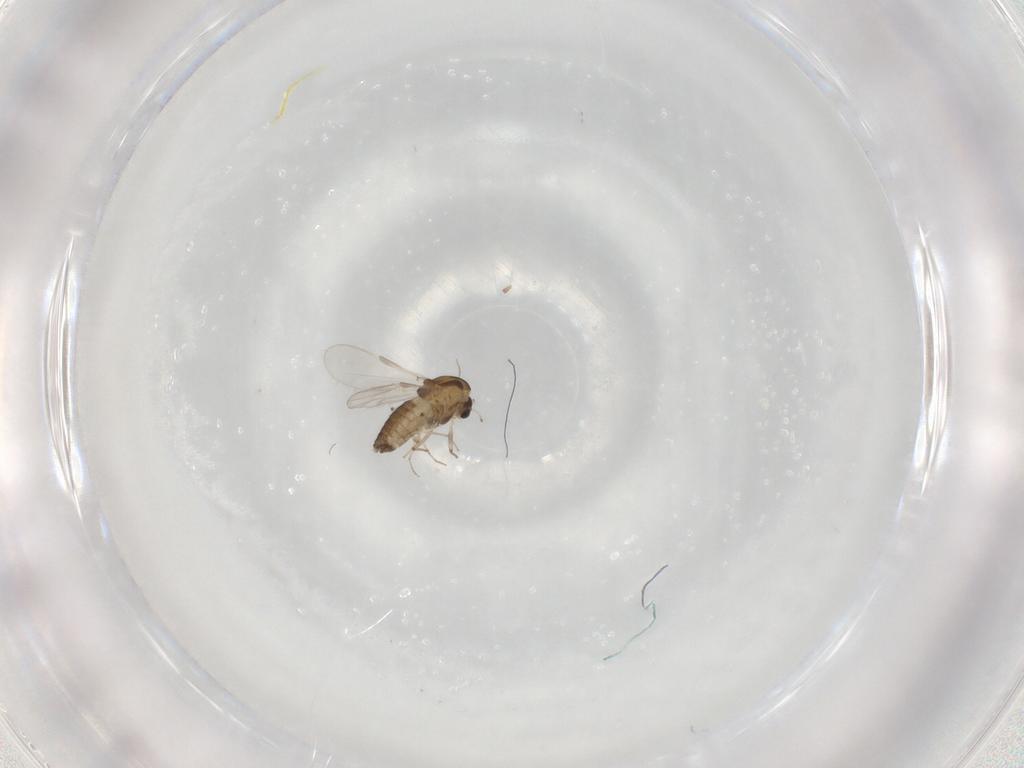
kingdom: Animalia
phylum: Arthropoda
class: Insecta
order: Diptera
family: Chironomidae
